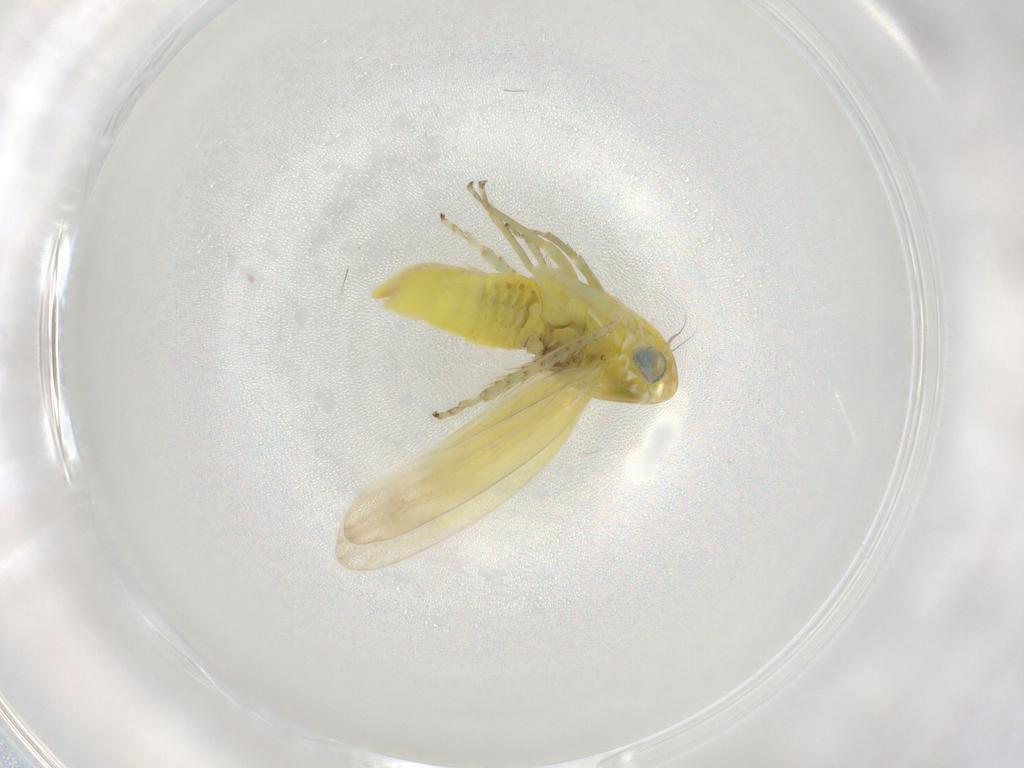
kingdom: Animalia
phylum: Arthropoda
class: Insecta
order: Hemiptera
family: Cicadellidae
